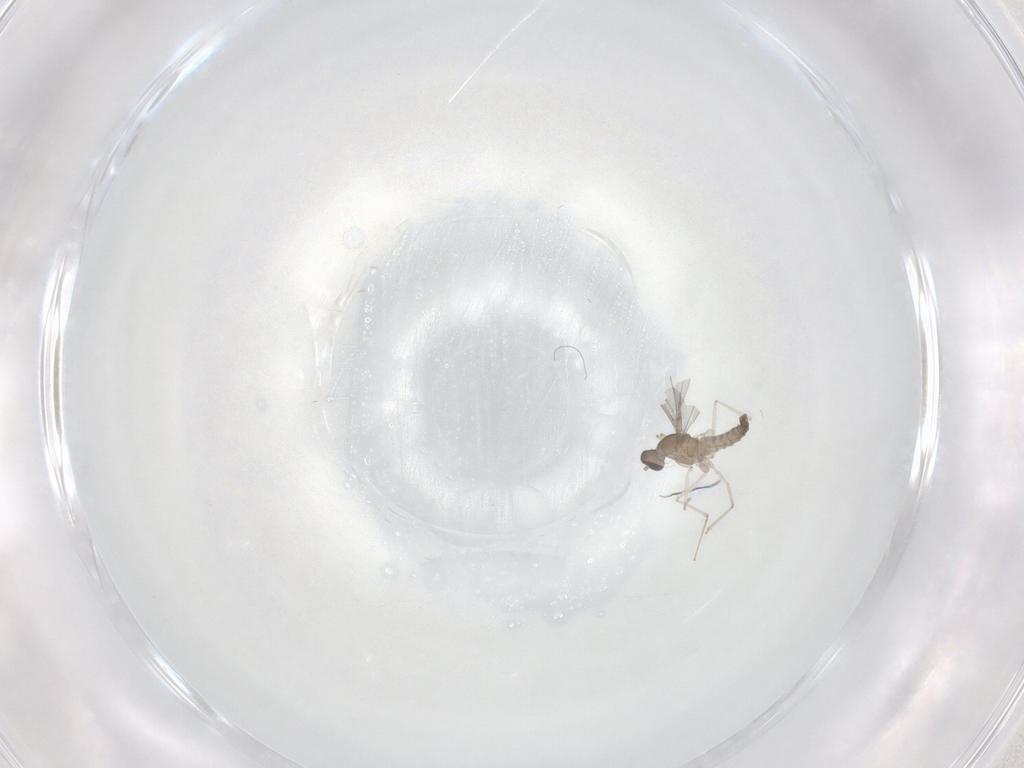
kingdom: Animalia
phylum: Arthropoda
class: Insecta
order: Diptera
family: Cecidomyiidae
